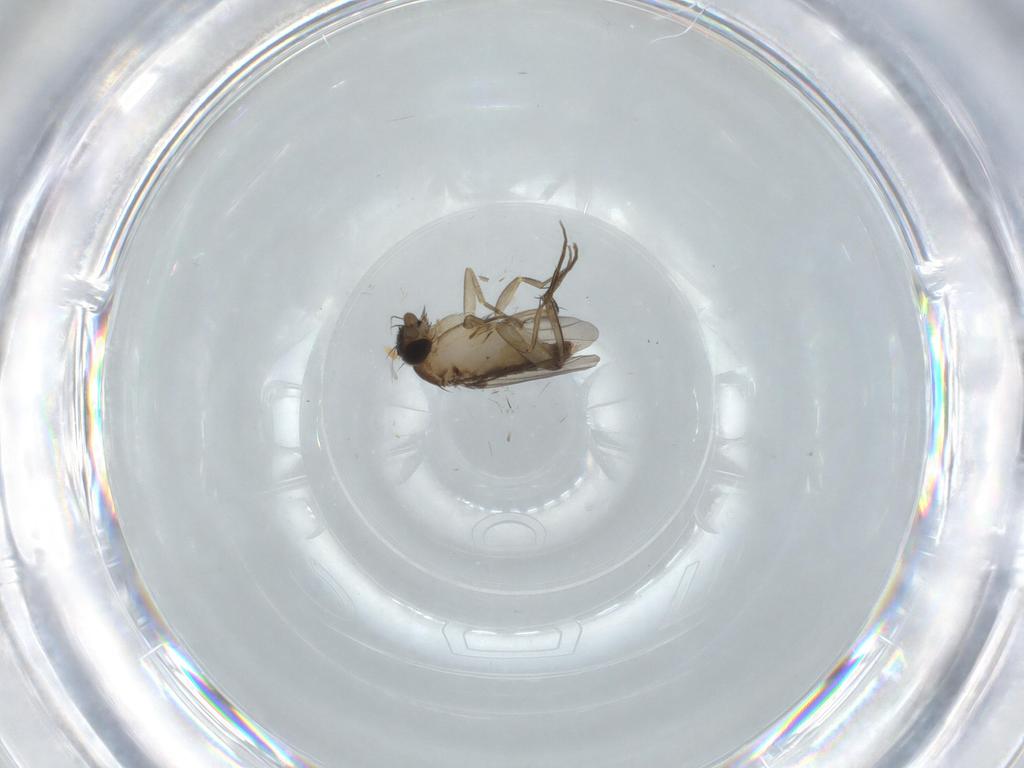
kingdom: Animalia
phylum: Arthropoda
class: Insecta
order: Diptera
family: Phoridae
